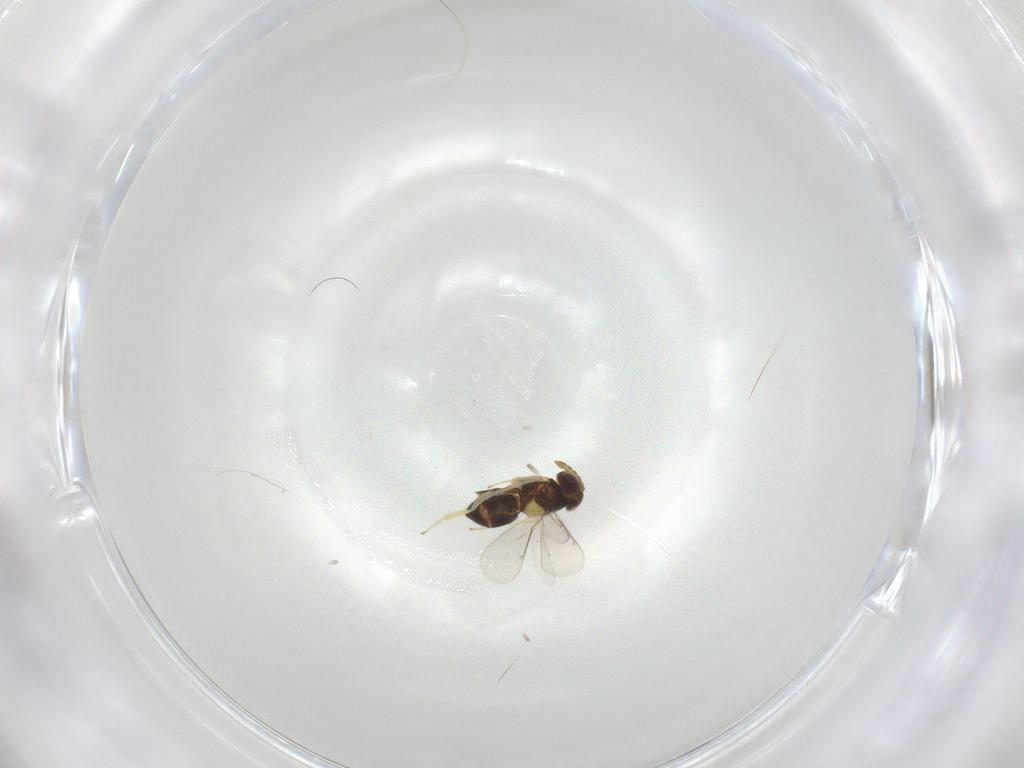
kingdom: Animalia
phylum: Arthropoda
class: Insecta
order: Hymenoptera
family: Aphelinidae
